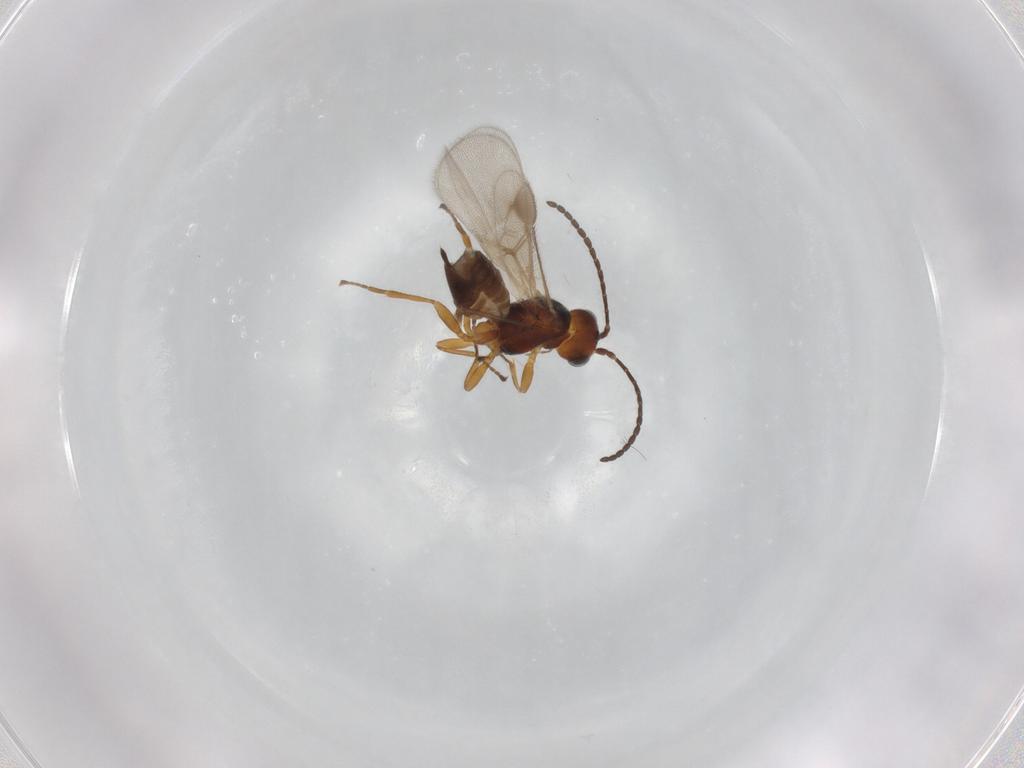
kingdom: Animalia
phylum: Arthropoda
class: Insecta
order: Hymenoptera
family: Braconidae
